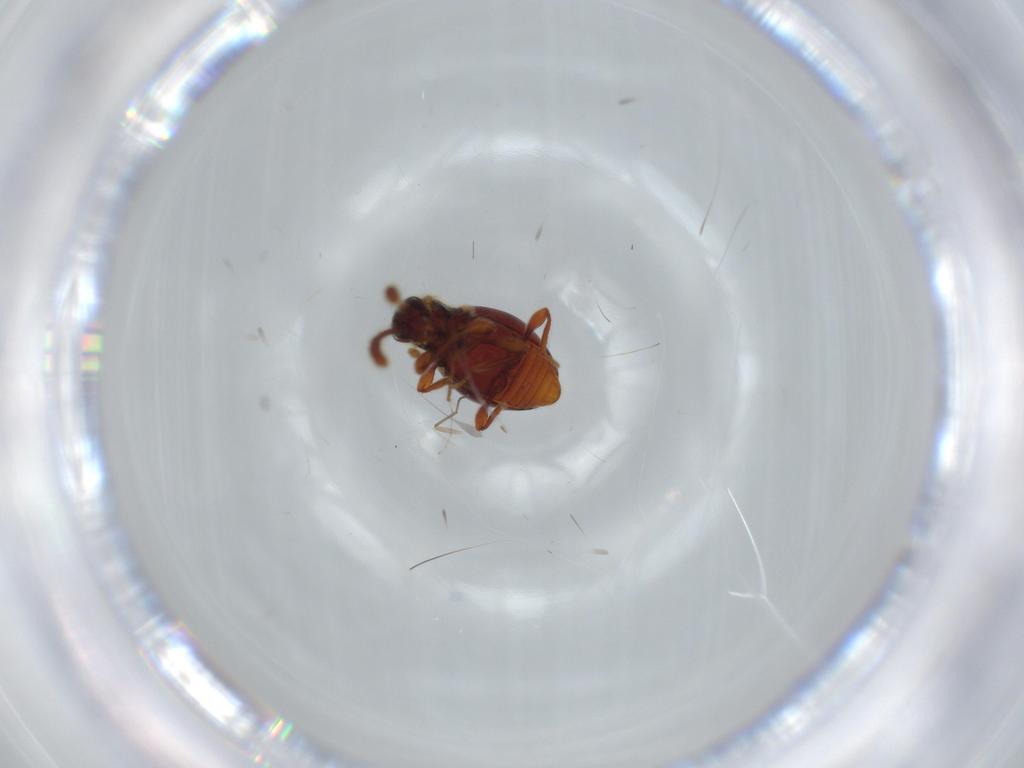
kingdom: Animalia
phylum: Arthropoda
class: Insecta
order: Coleoptera
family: Staphylinidae
